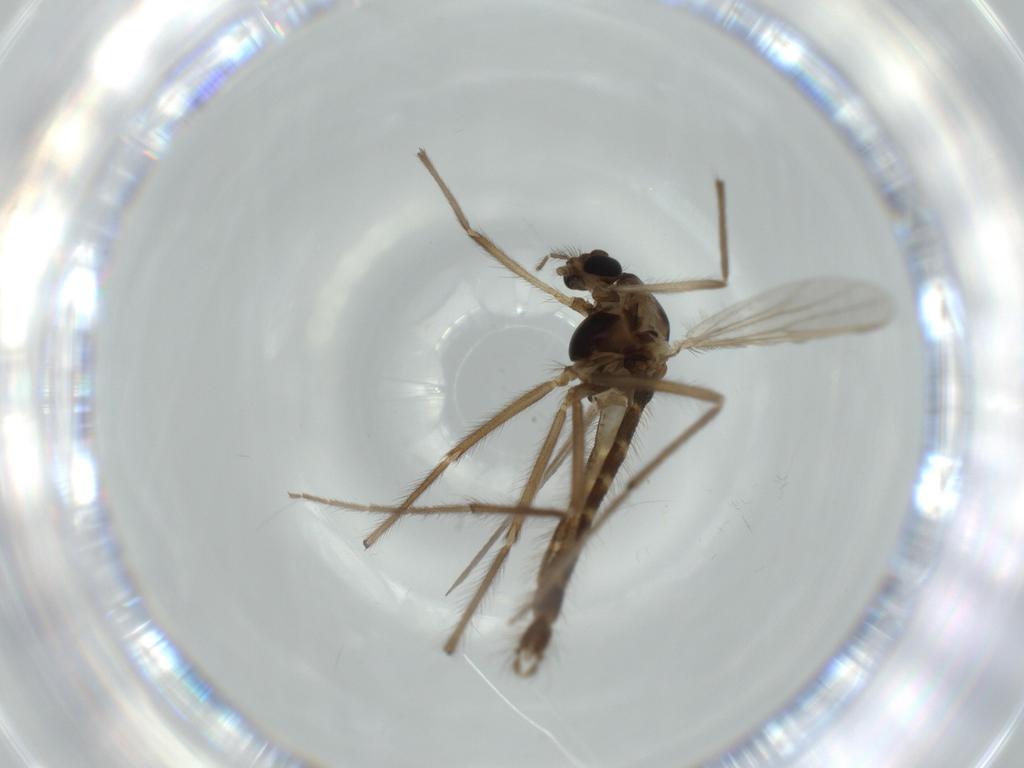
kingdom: Animalia
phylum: Arthropoda
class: Insecta
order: Diptera
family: Chironomidae
